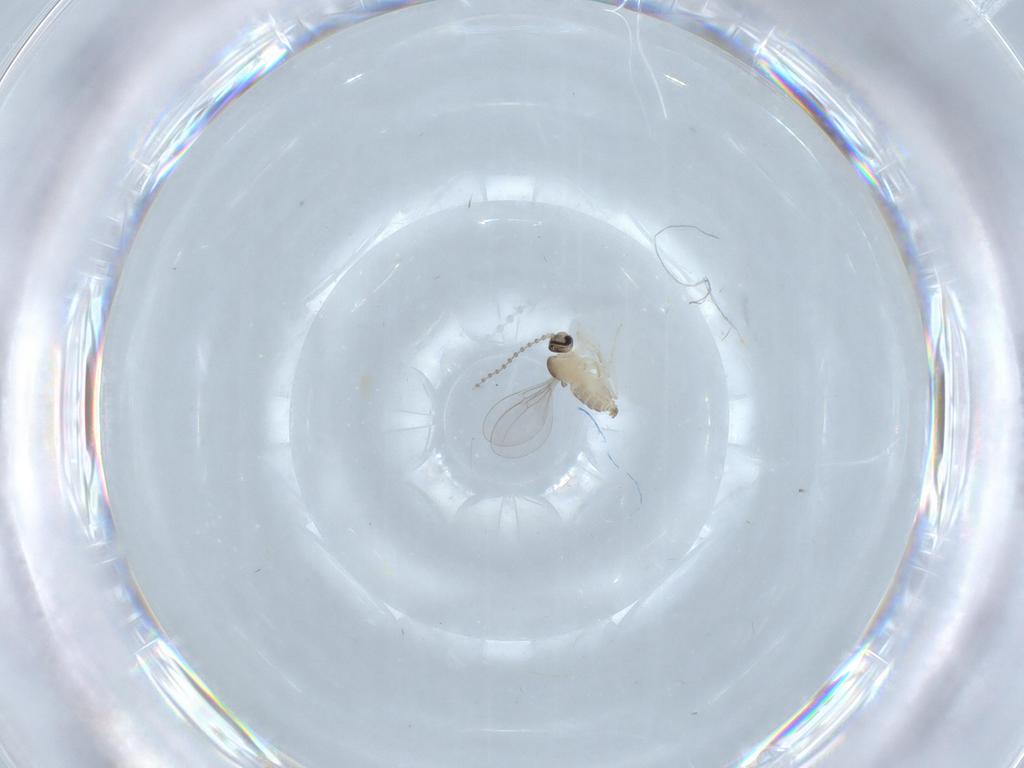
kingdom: Animalia
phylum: Arthropoda
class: Insecta
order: Diptera
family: Cecidomyiidae
